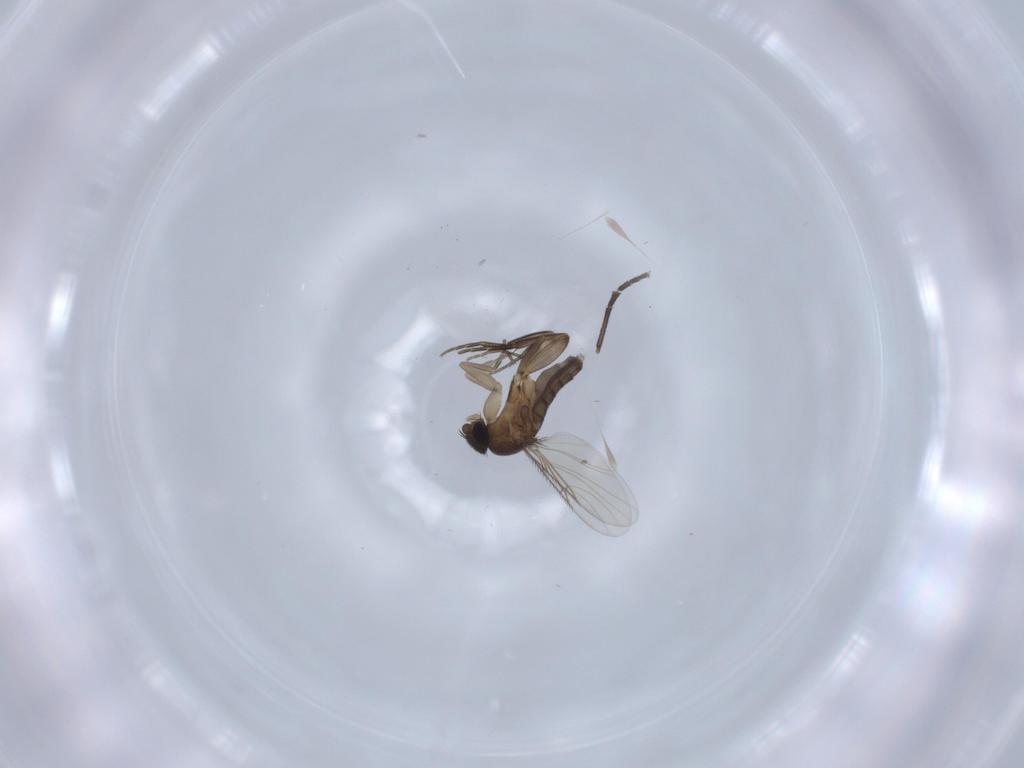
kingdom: Animalia
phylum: Arthropoda
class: Insecta
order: Diptera
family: Phoridae
